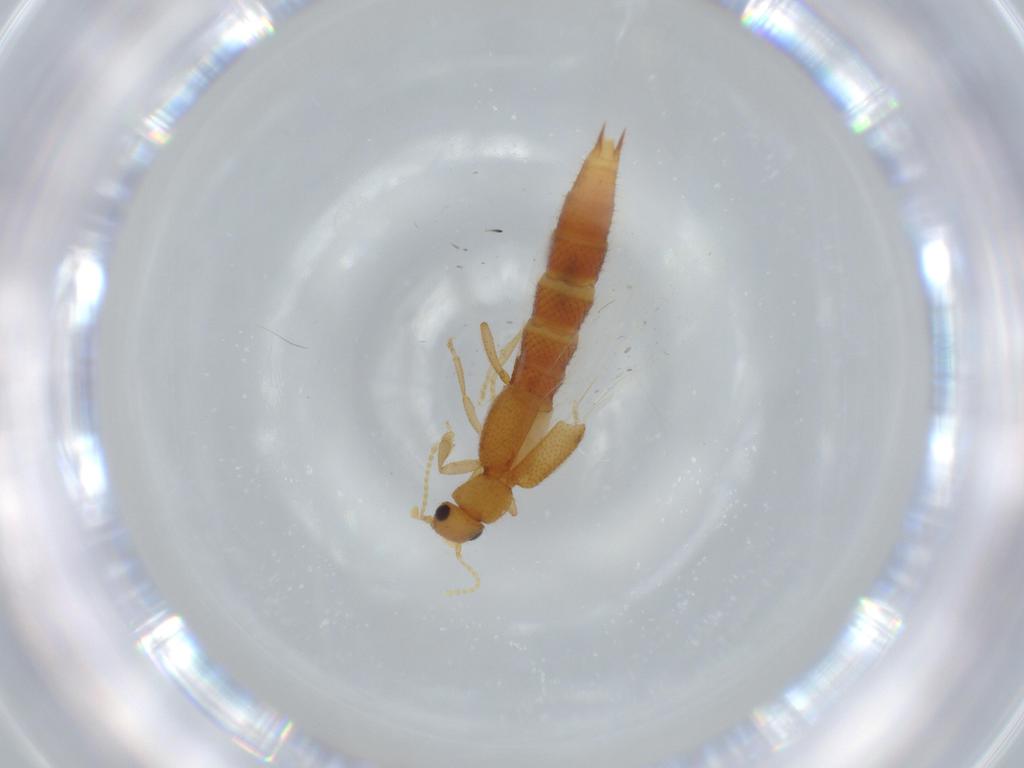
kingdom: Animalia
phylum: Arthropoda
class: Insecta
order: Coleoptera
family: Staphylinidae
